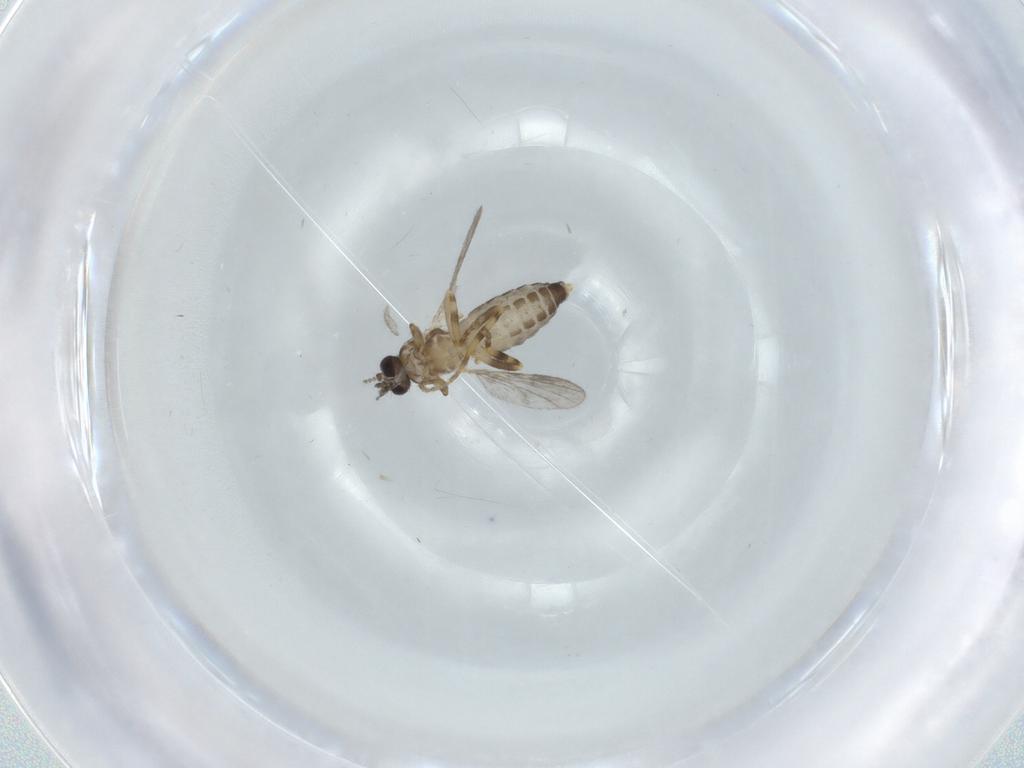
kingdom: Animalia
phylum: Arthropoda
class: Insecta
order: Diptera
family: Ceratopogonidae
